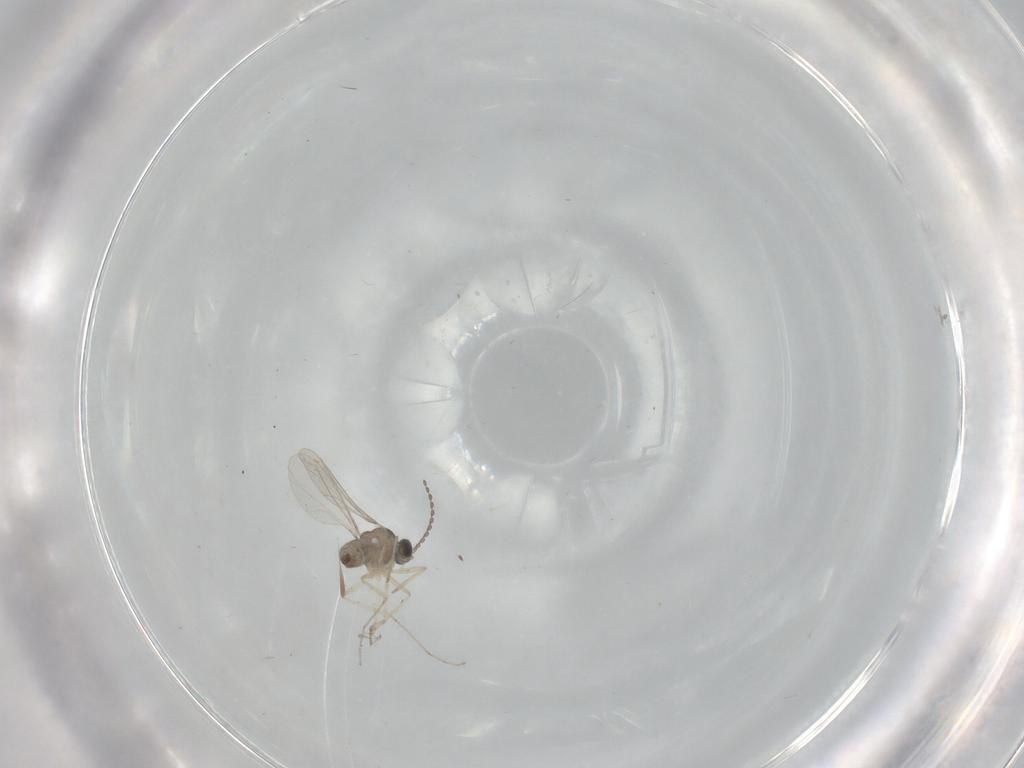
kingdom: Animalia
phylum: Arthropoda
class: Insecta
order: Diptera
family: Cecidomyiidae
